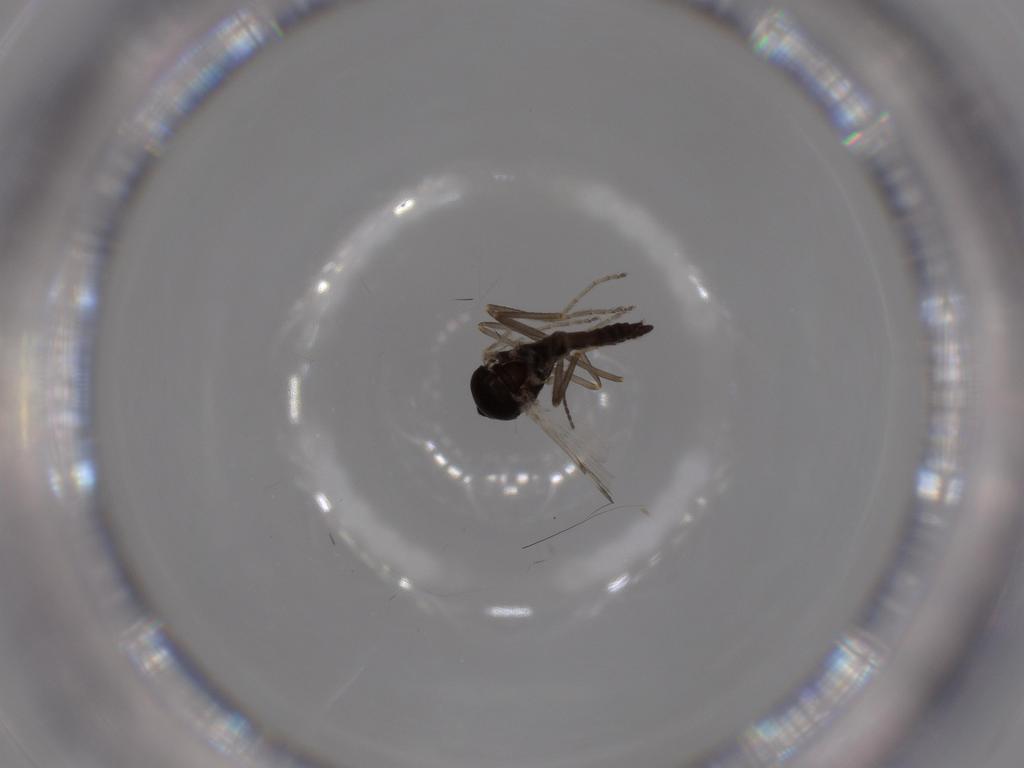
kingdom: Animalia
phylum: Arthropoda
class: Insecta
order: Diptera
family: Ceratopogonidae
